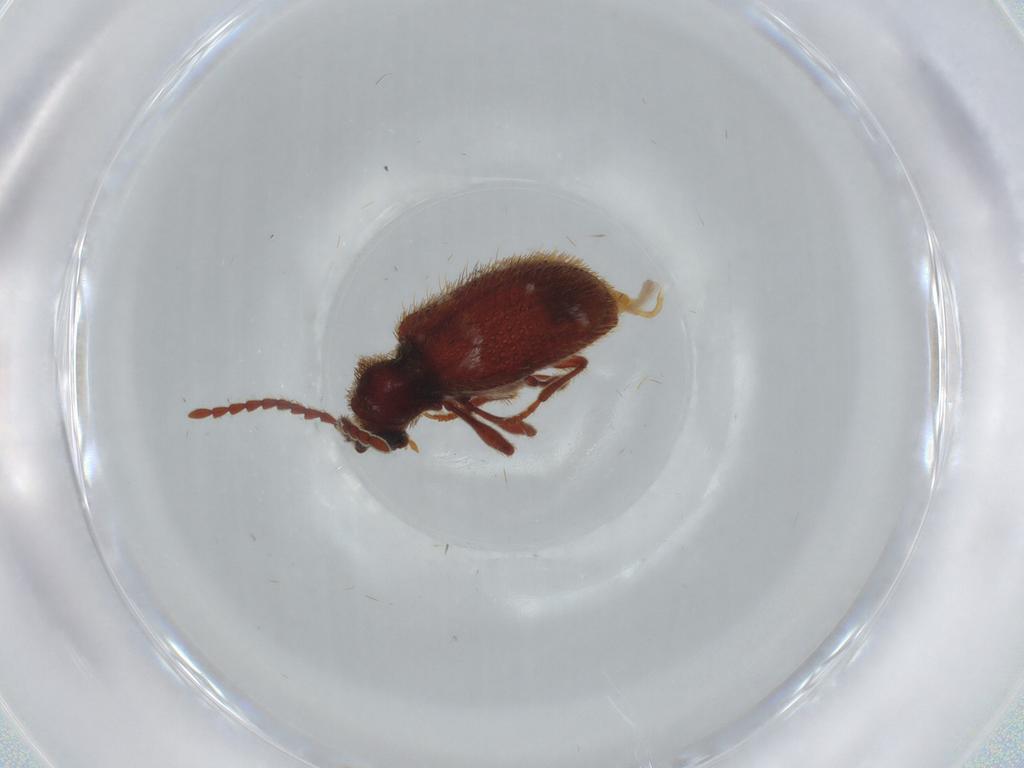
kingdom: Animalia
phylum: Arthropoda
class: Insecta
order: Coleoptera
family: Ptinidae
